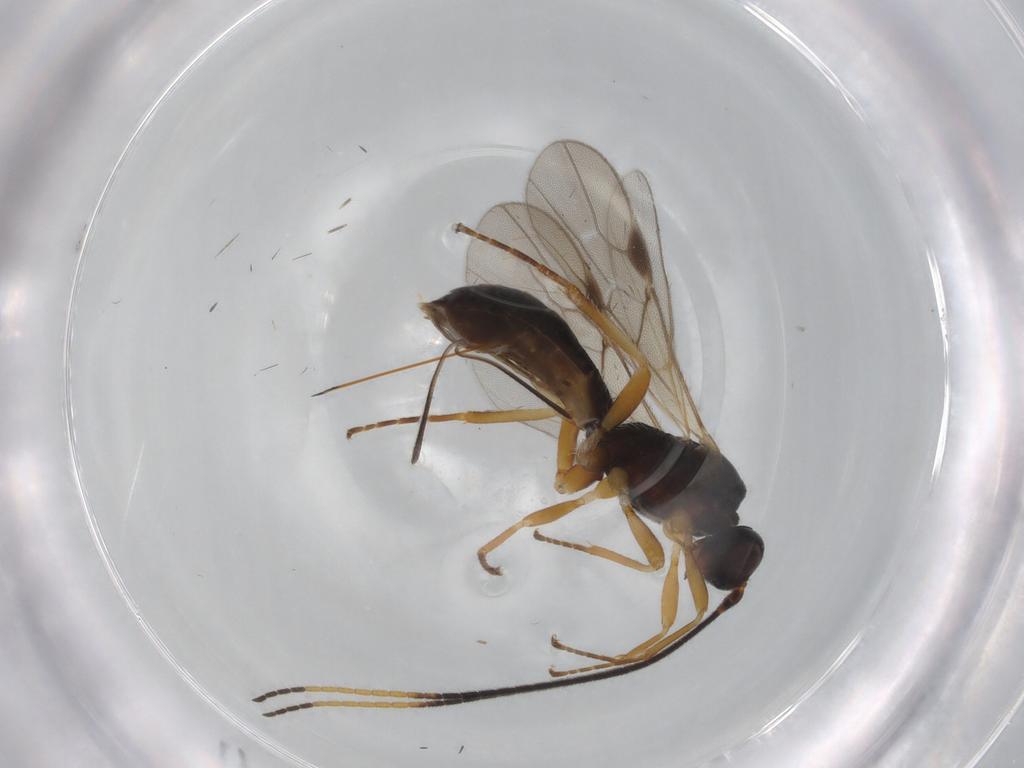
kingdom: Animalia
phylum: Arthropoda
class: Insecta
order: Hymenoptera
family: Braconidae
